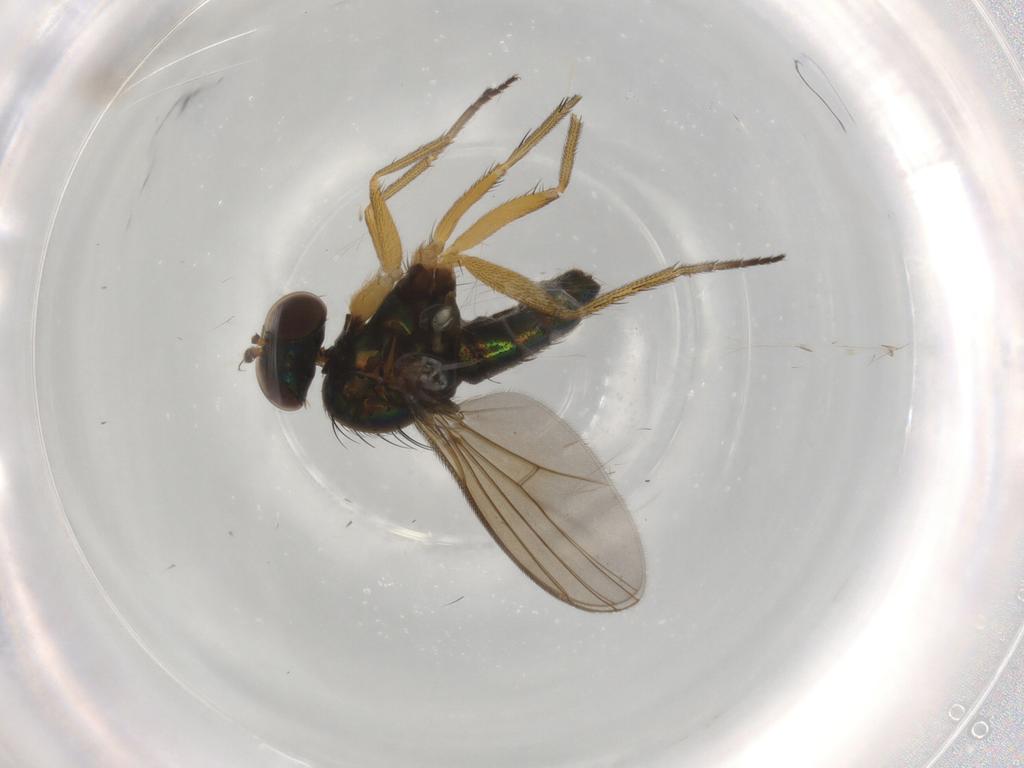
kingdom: Animalia
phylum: Arthropoda
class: Insecta
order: Diptera
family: Dolichopodidae
